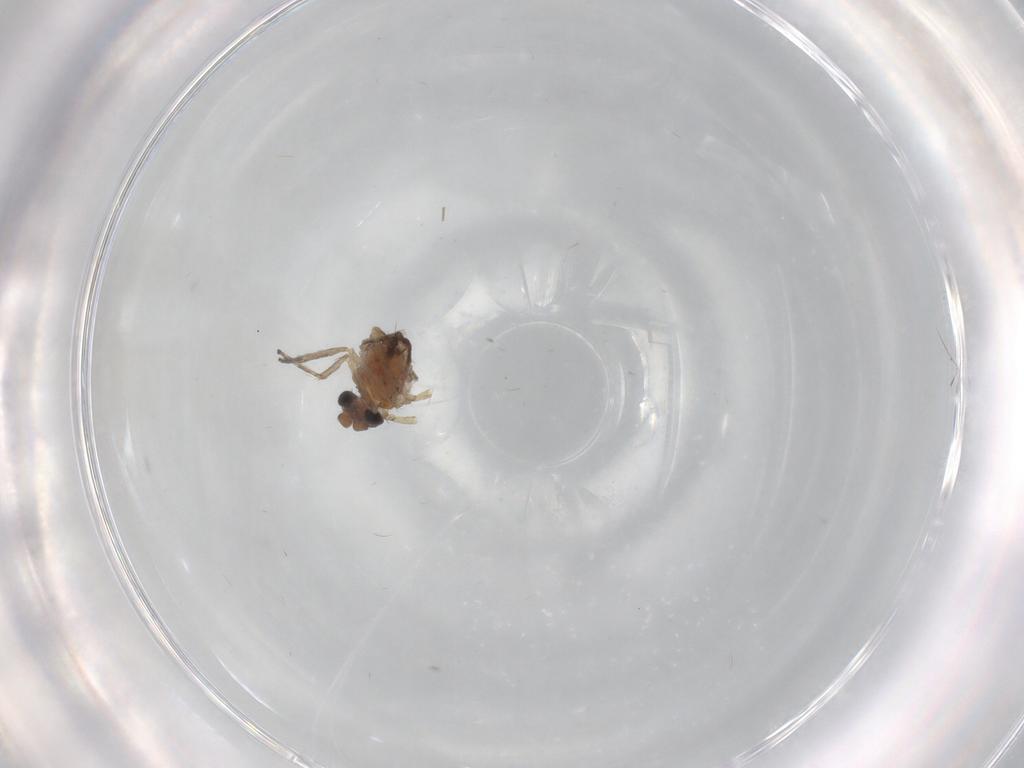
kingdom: Animalia
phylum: Arthropoda
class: Insecta
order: Diptera
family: Ceratopogonidae
